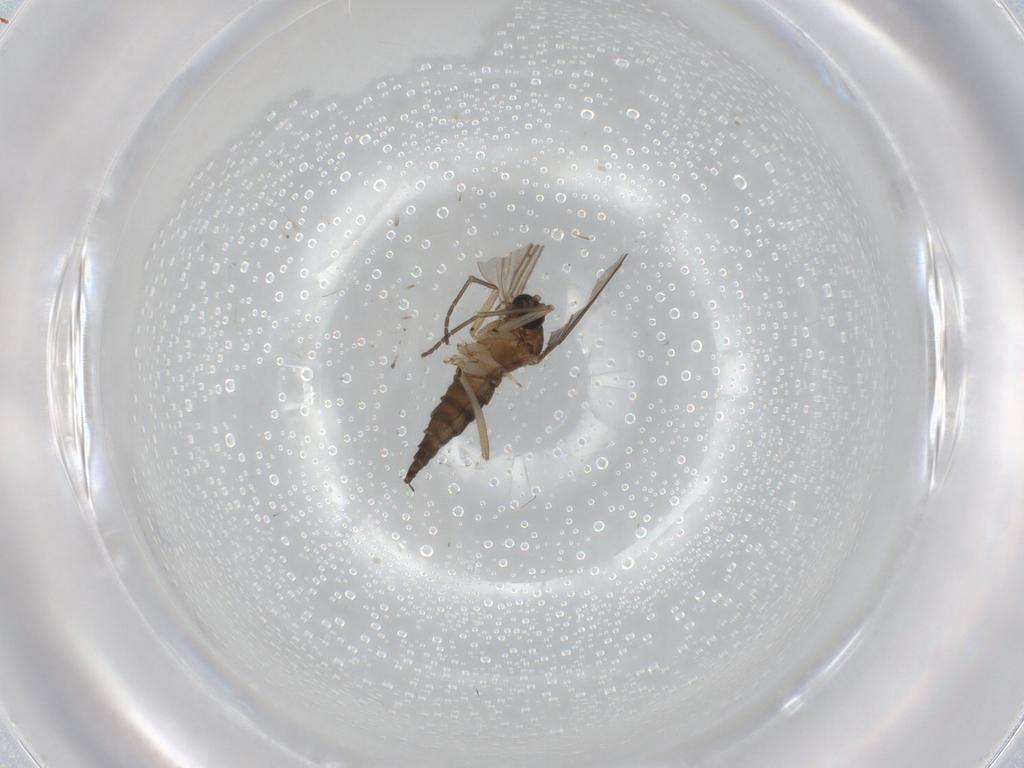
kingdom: Animalia
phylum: Arthropoda
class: Insecta
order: Diptera
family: Sciaridae
